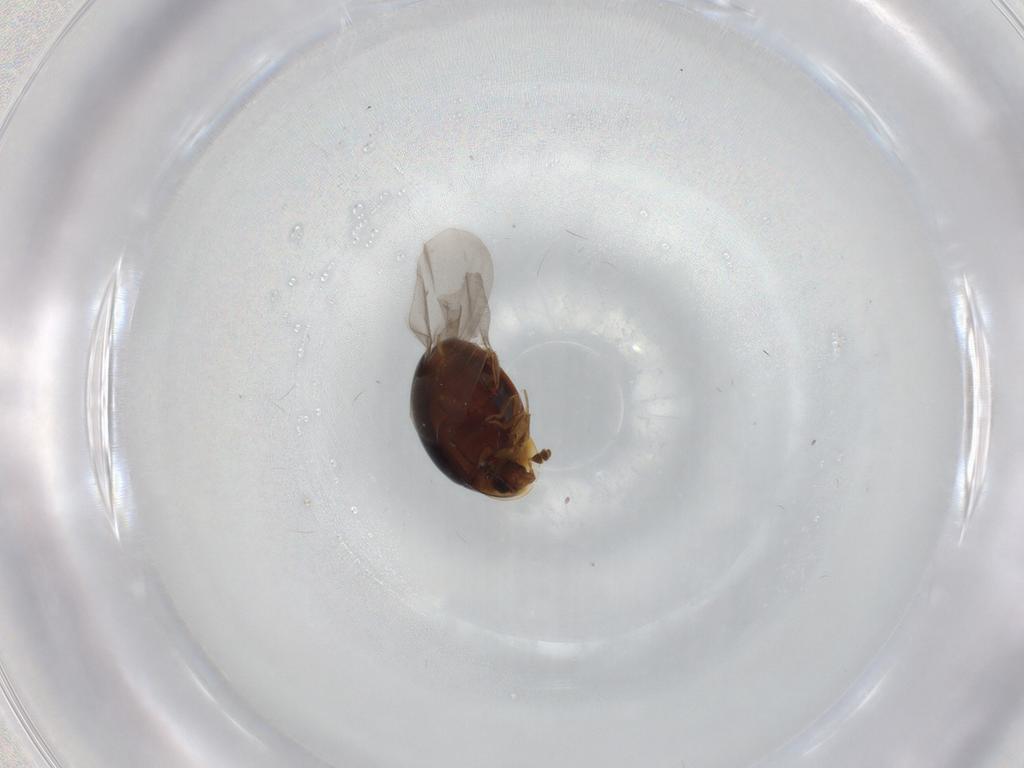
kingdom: Animalia
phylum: Arthropoda
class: Insecta
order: Coleoptera
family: Corylophidae
